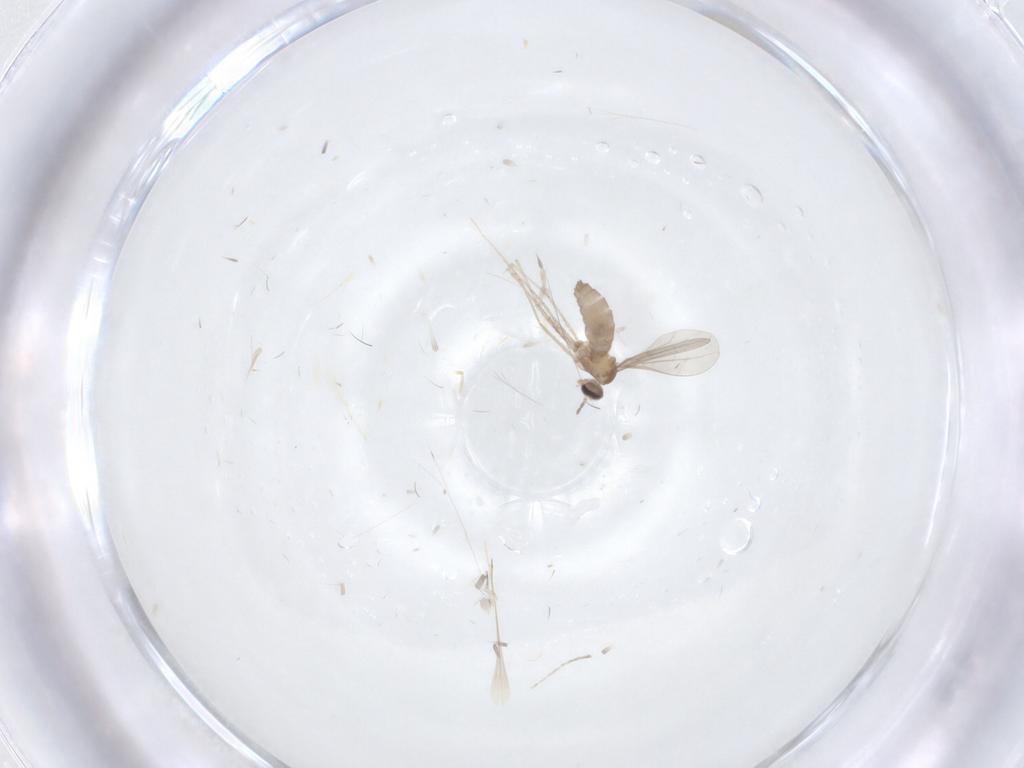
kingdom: Animalia
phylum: Arthropoda
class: Insecta
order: Diptera
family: Cecidomyiidae
